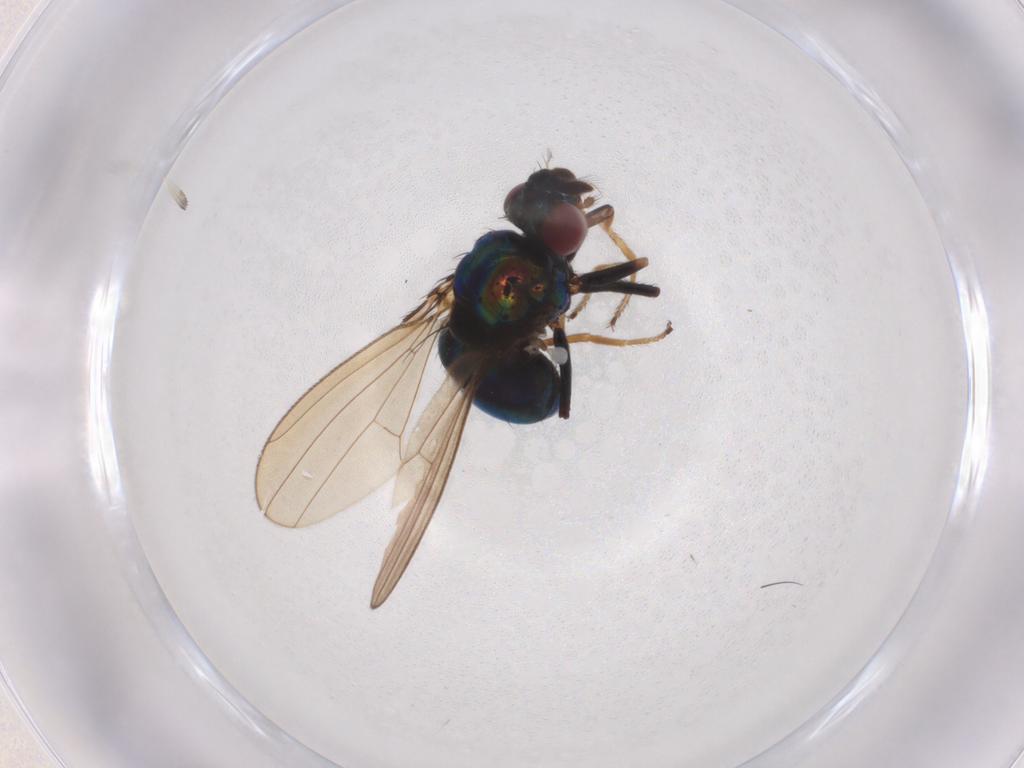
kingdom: Animalia
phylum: Arthropoda
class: Insecta
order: Diptera
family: Ephydridae
